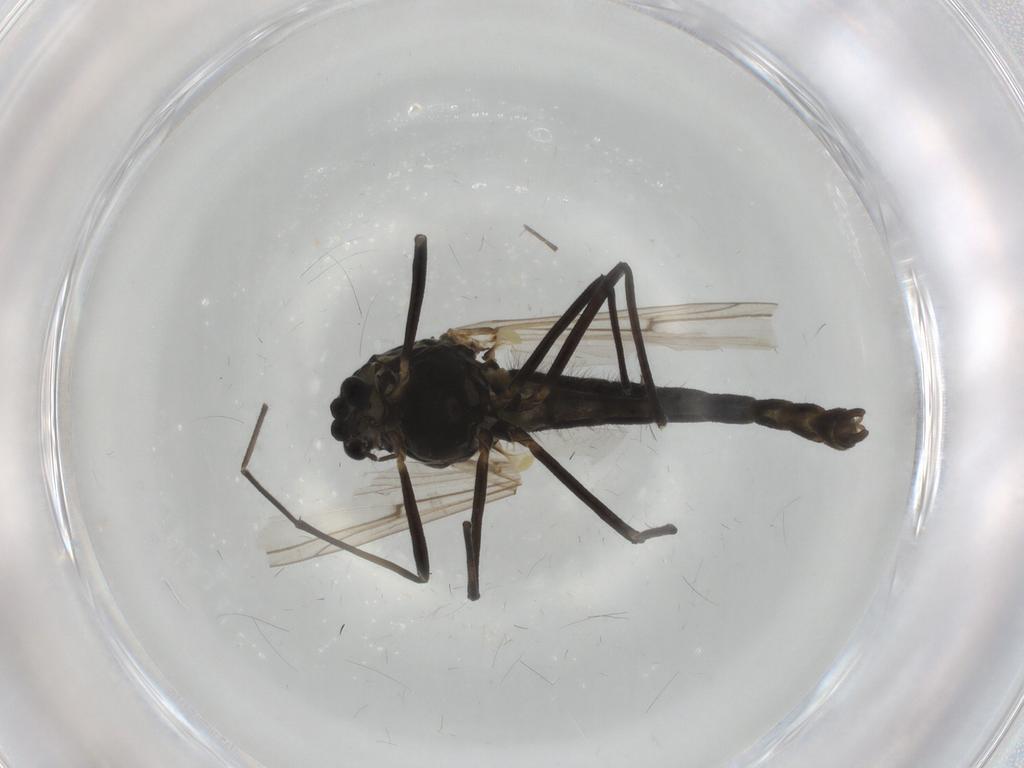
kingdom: Animalia
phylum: Arthropoda
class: Insecta
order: Diptera
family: Cecidomyiidae
